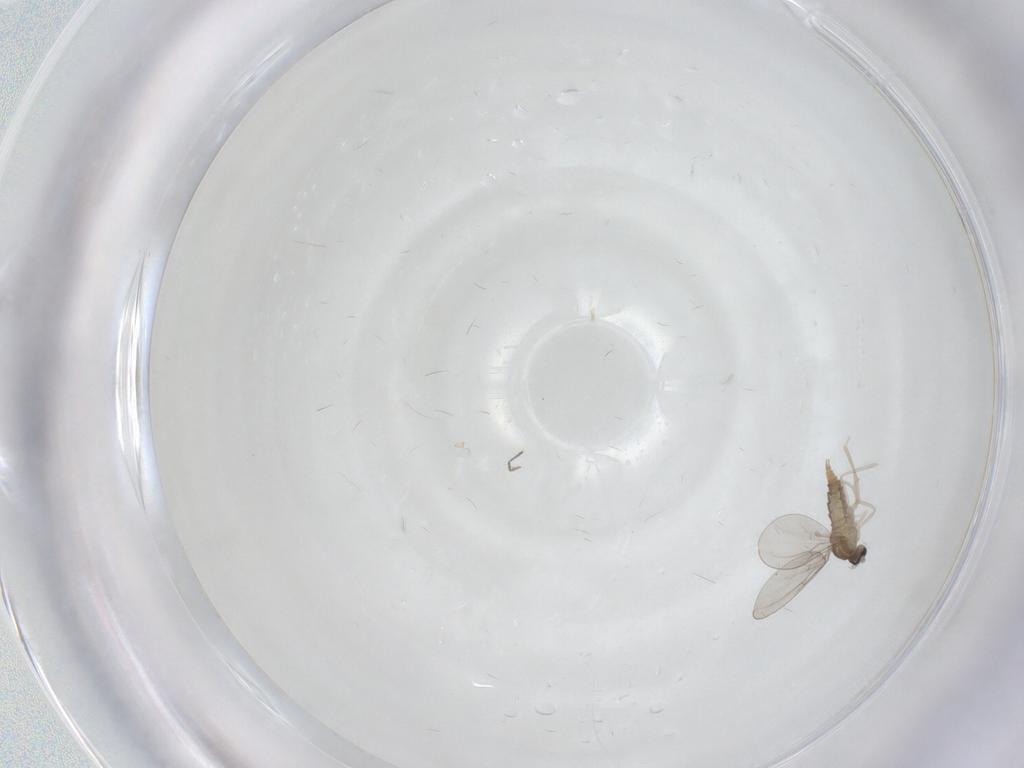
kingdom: Animalia
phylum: Arthropoda
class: Insecta
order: Diptera
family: Cecidomyiidae
